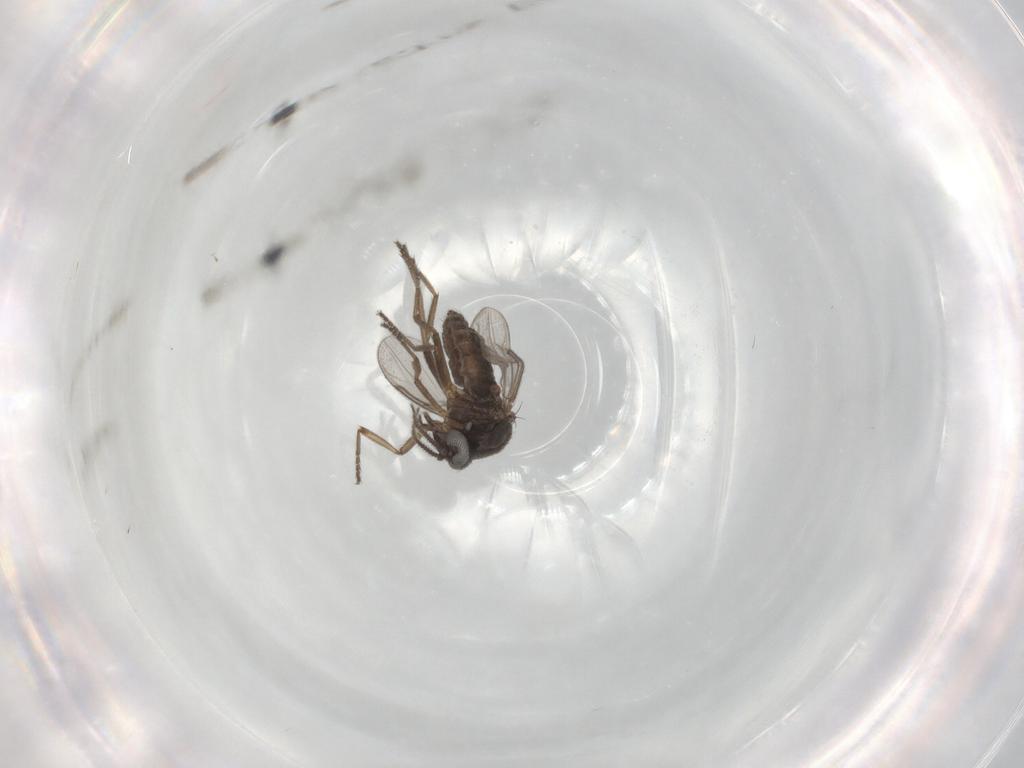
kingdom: Animalia
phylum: Arthropoda
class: Insecta
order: Diptera
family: Ceratopogonidae
